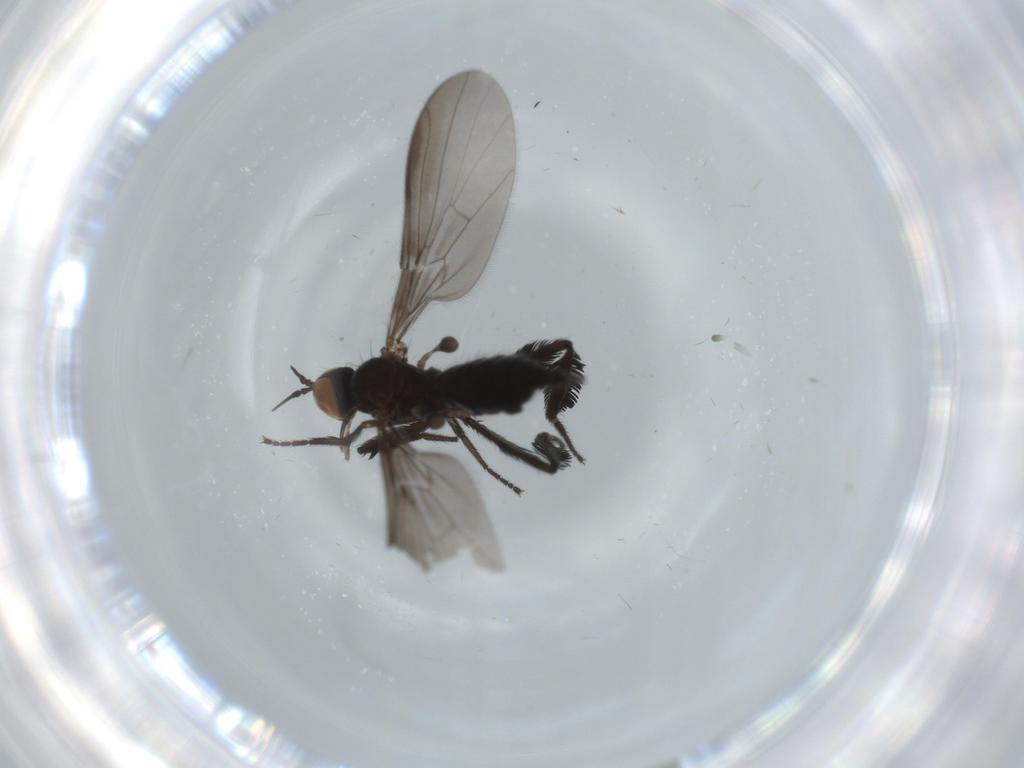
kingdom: Animalia
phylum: Arthropoda
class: Insecta
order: Diptera
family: Empididae
